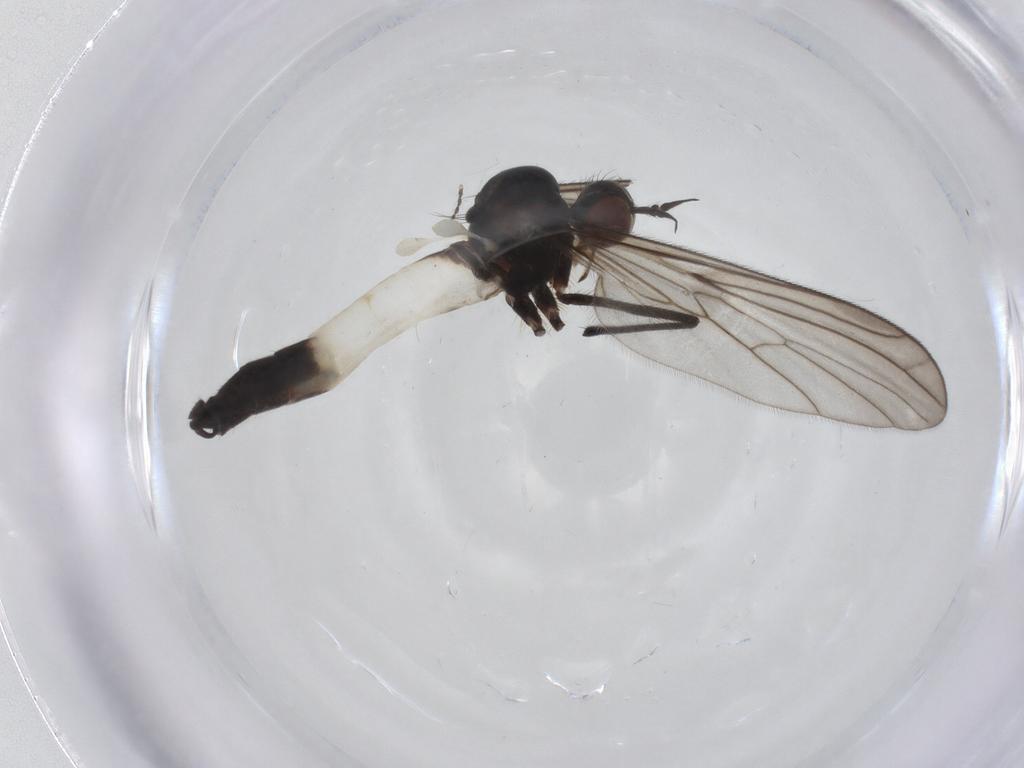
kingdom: Animalia
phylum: Arthropoda
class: Insecta
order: Diptera
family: Empididae
